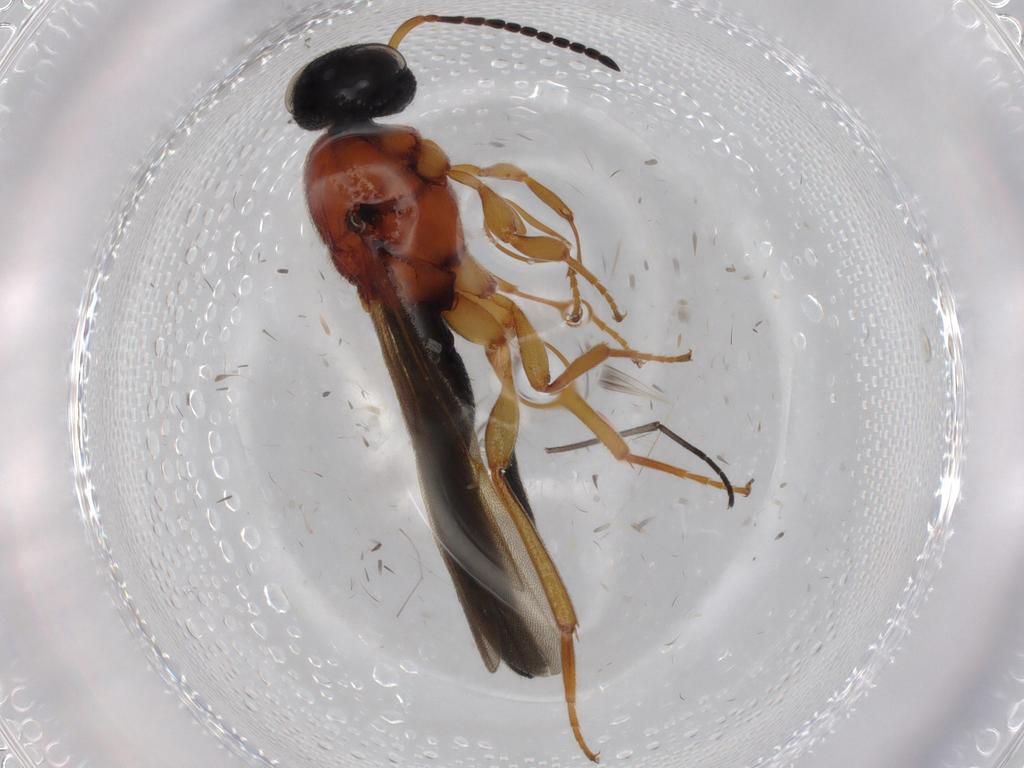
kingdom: Animalia
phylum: Arthropoda
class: Insecta
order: Hymenoptera
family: Scelionidae
